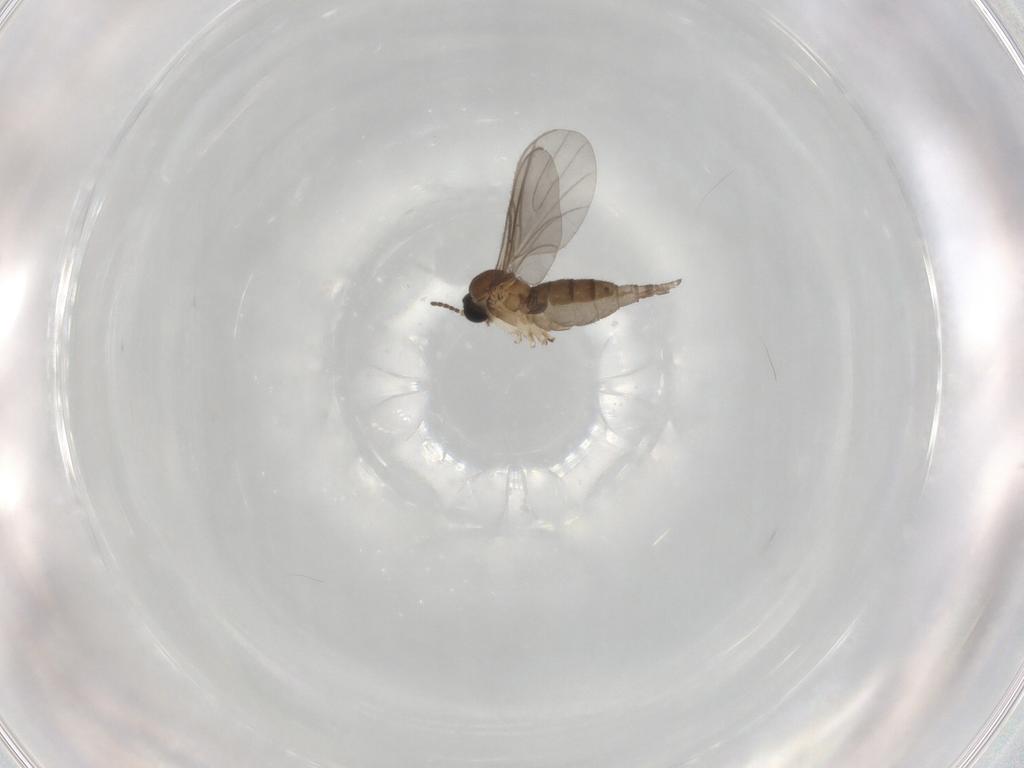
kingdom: Animalia
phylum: Arthropoda
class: Insecta
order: Diptera
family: Sciaridae
